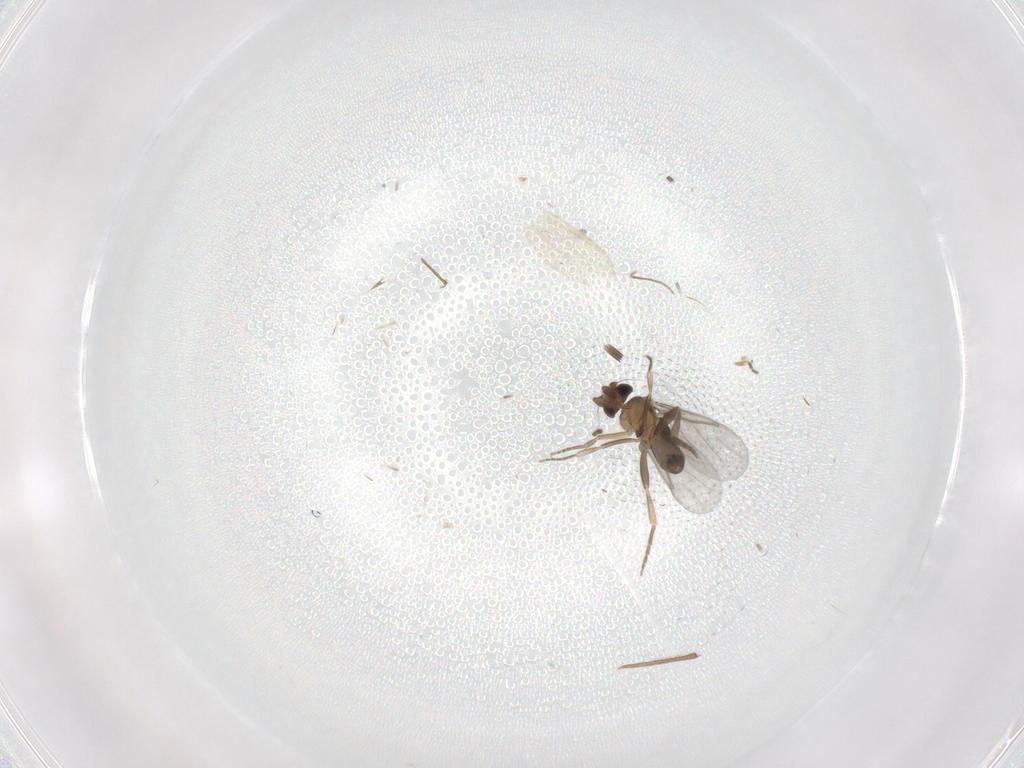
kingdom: Animalia
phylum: Arthropoda
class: Insecta
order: Diptera
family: Chironomidae
